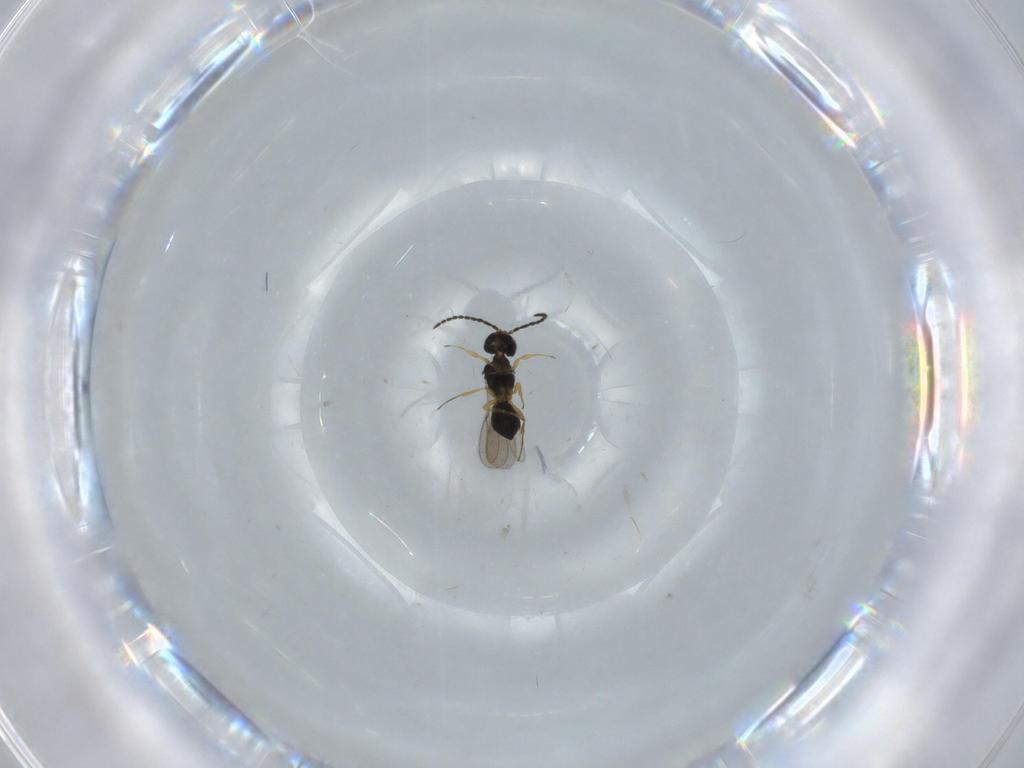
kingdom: Animalia
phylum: Arthropoda
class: Insecta
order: Hymenoptera
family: Scelionidae
